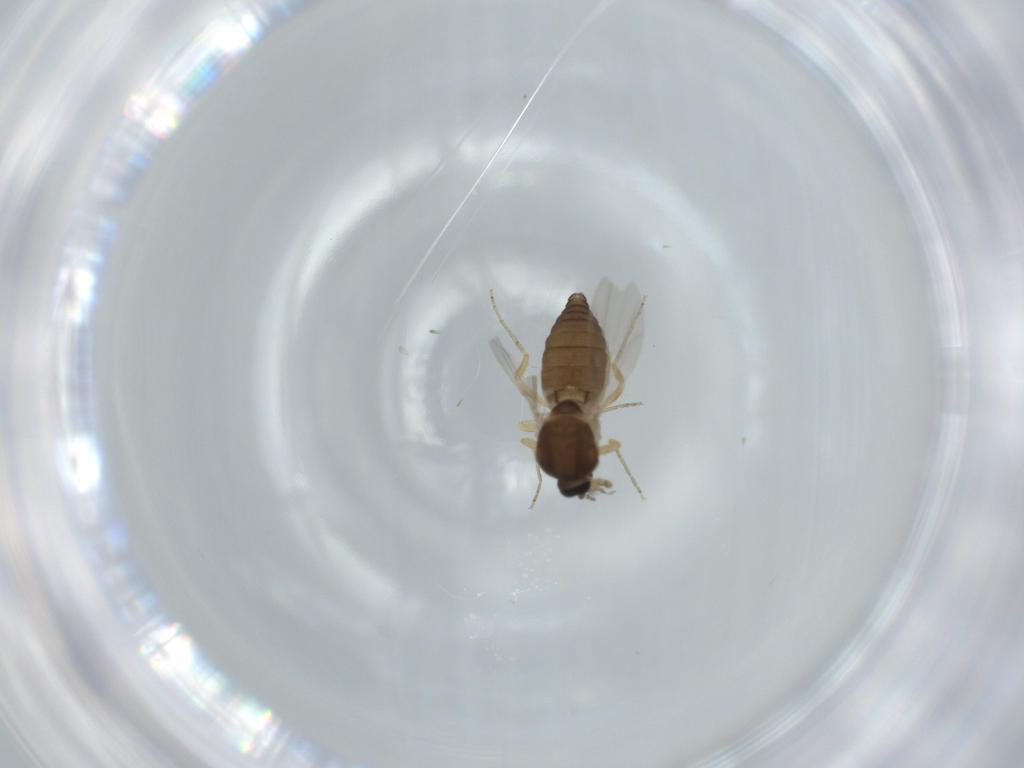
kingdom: Animalia
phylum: Arthropoda
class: Insecta
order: Diptera
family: Ceratopogonidae
